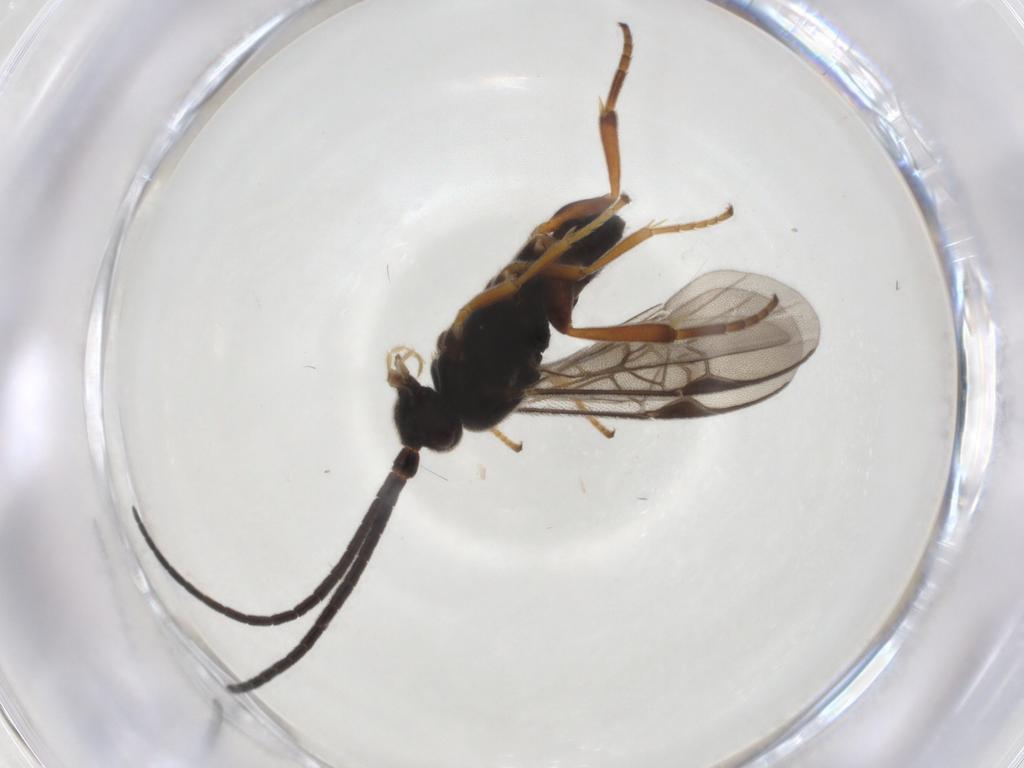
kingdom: Animalia
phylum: Arthropoda
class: Insecta
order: Hymenoptera
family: Braconidae
